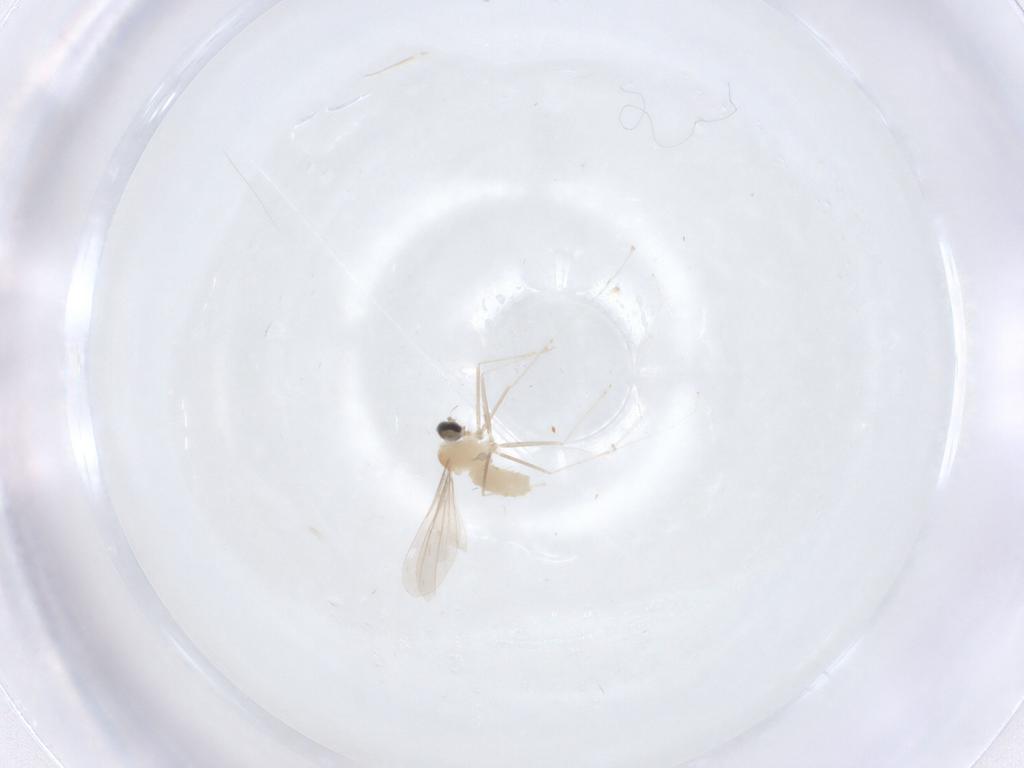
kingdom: Animalia
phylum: Arthropoda
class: Insecta
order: Diptera
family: Psychodidae
